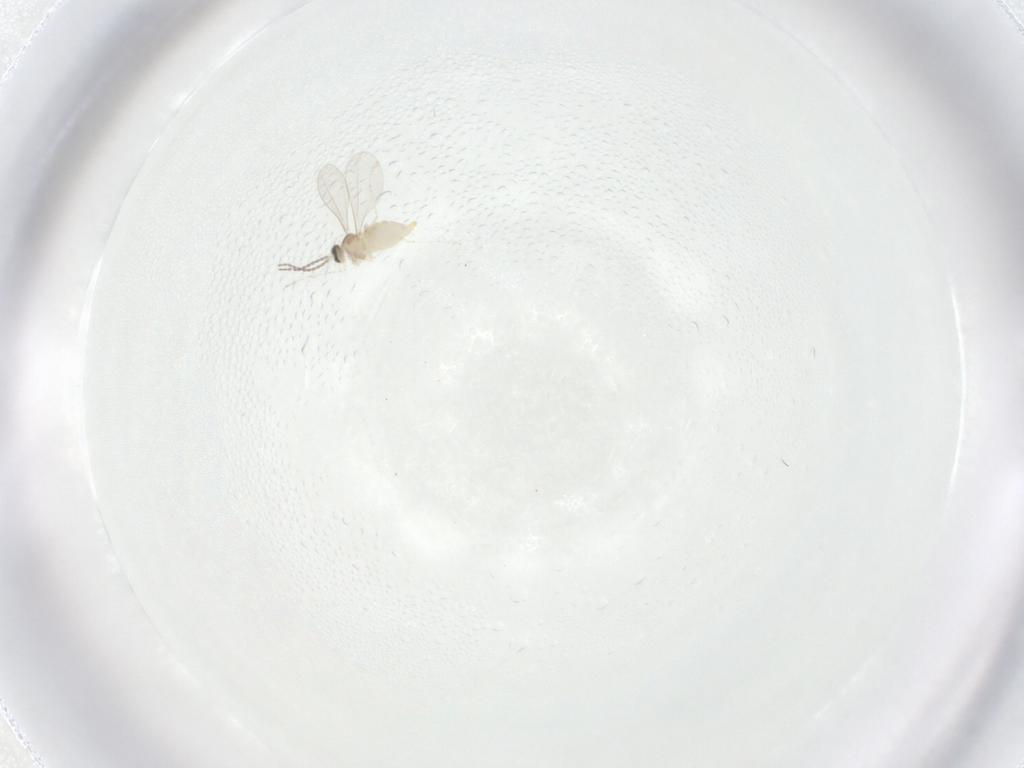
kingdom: Animalia
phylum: Arthropoda
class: Insecta
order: Diptera
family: Cecidomyiidae
